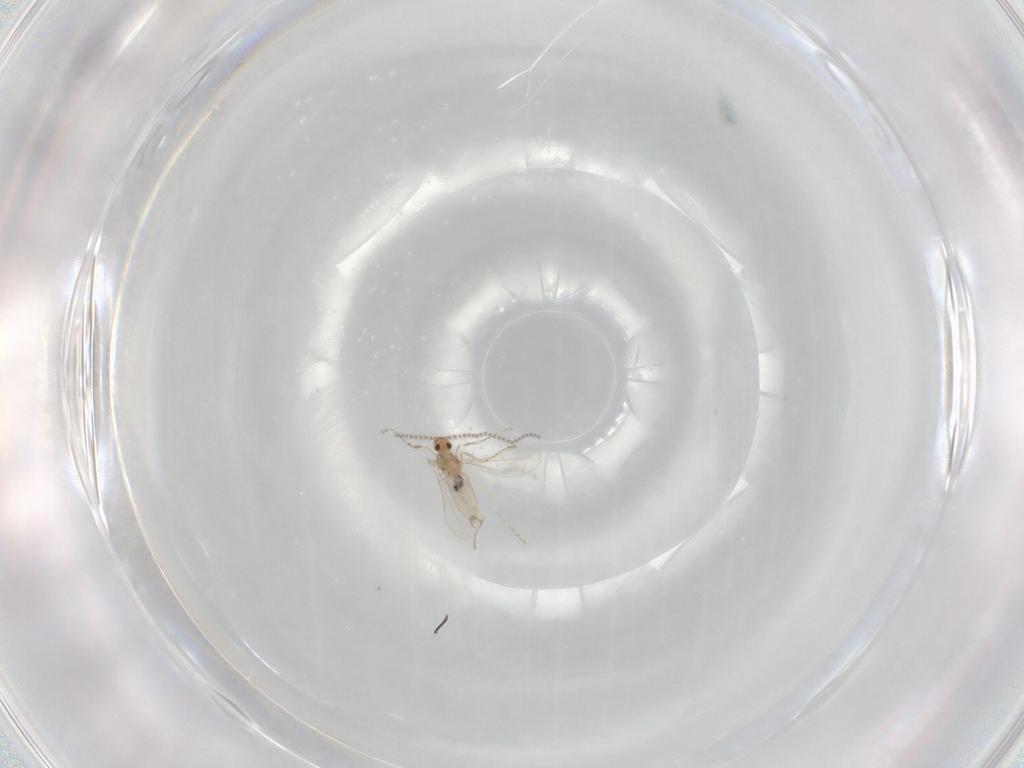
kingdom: Animalia
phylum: Arthropoda
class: Insecta
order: Diptera
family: Cecidomyiidae
